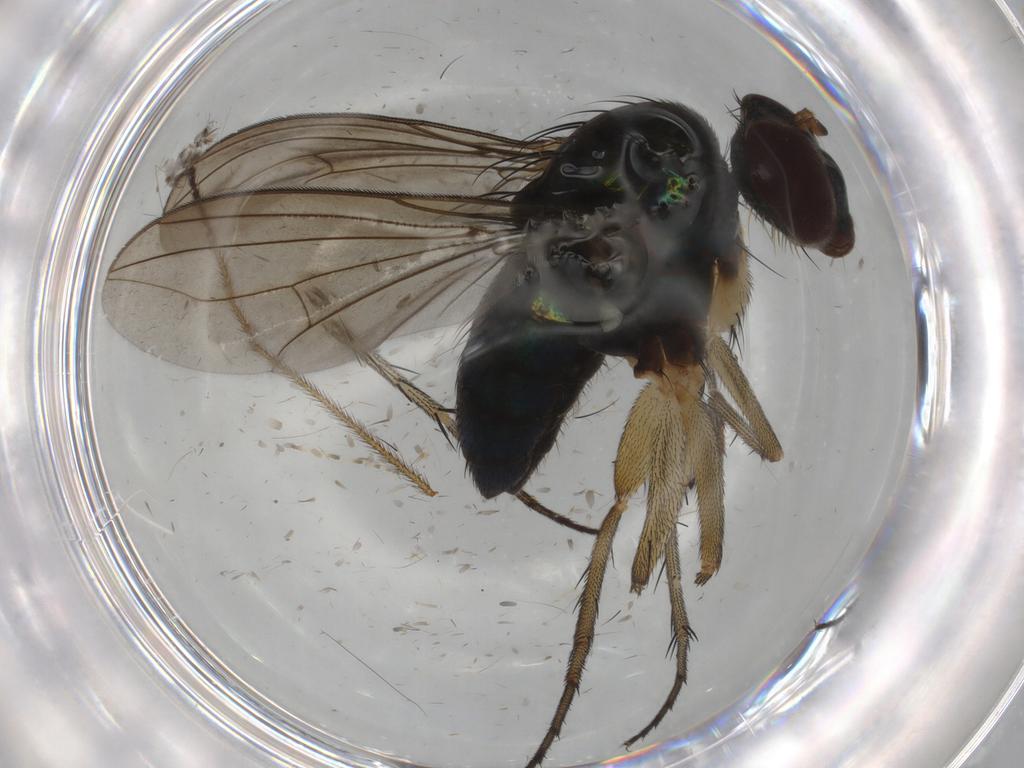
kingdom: Animalia
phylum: Arthropoda
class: Insecta
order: Diptera
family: Dolichopodidae
